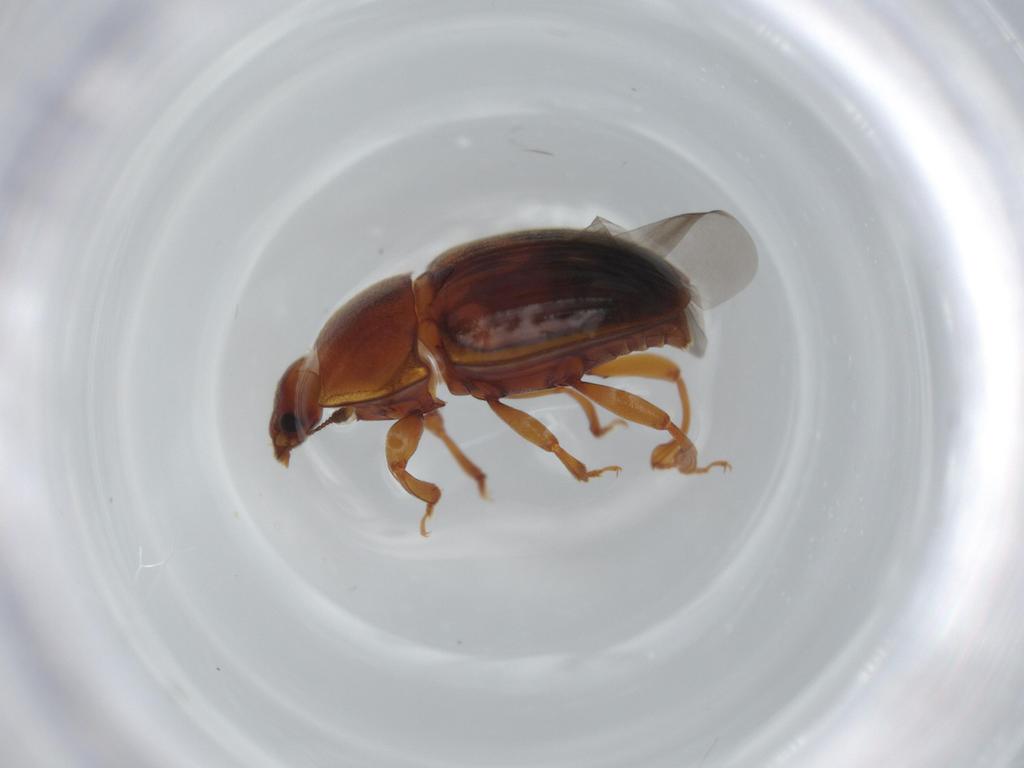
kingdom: Animalia
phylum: Arthropoda
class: Insecta
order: Coleoptera
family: Nitidulidae
